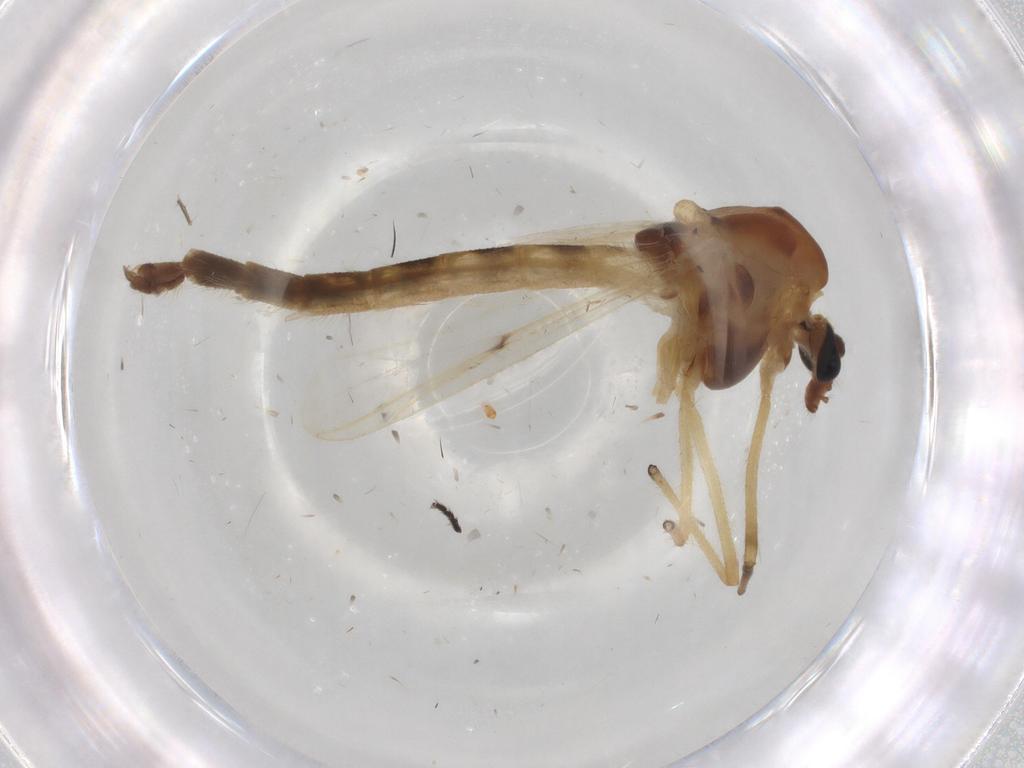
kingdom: Animalia
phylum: Arthropoda
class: Insecta
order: Diptera
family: Chironomidae
